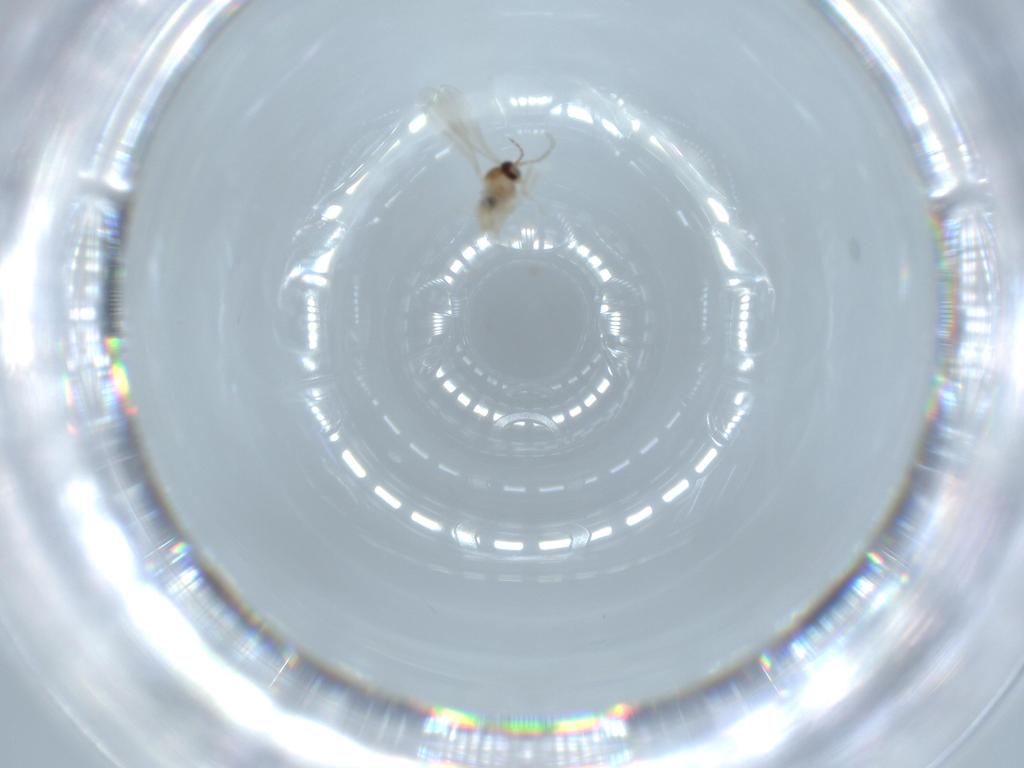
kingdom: Animalia
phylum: Arthropoda
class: Insecta
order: Diptera
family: Cecidomyiidae
